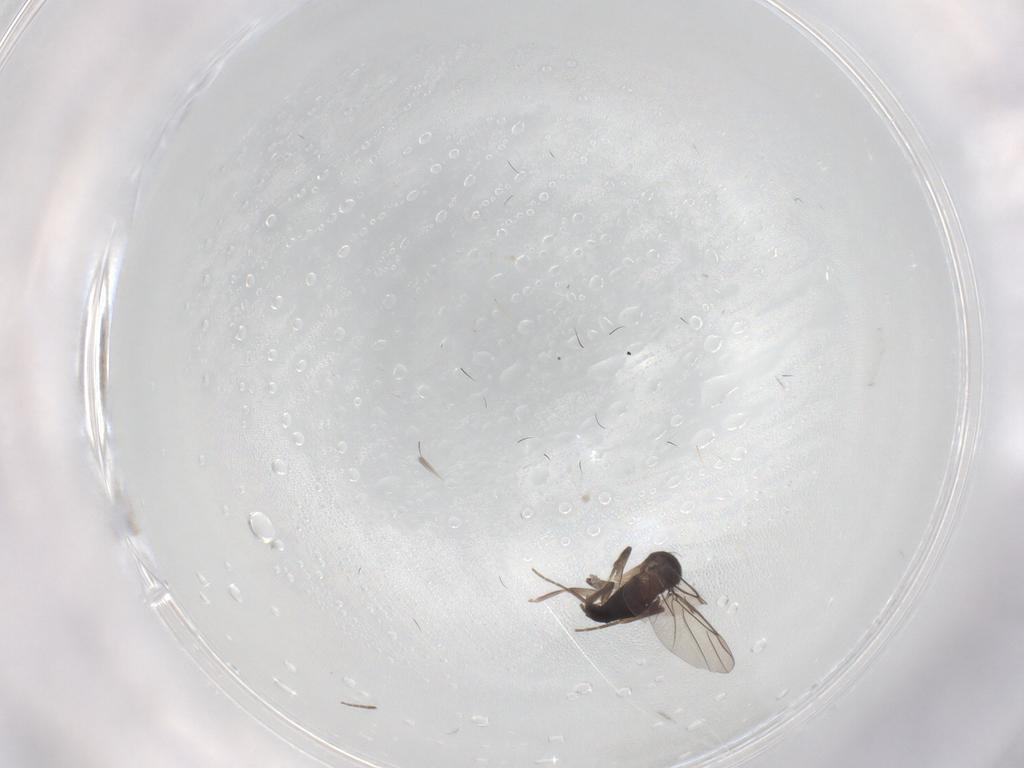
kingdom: Animalia
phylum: Arthropoda
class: Insecta
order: Diptera
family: Phoridae
